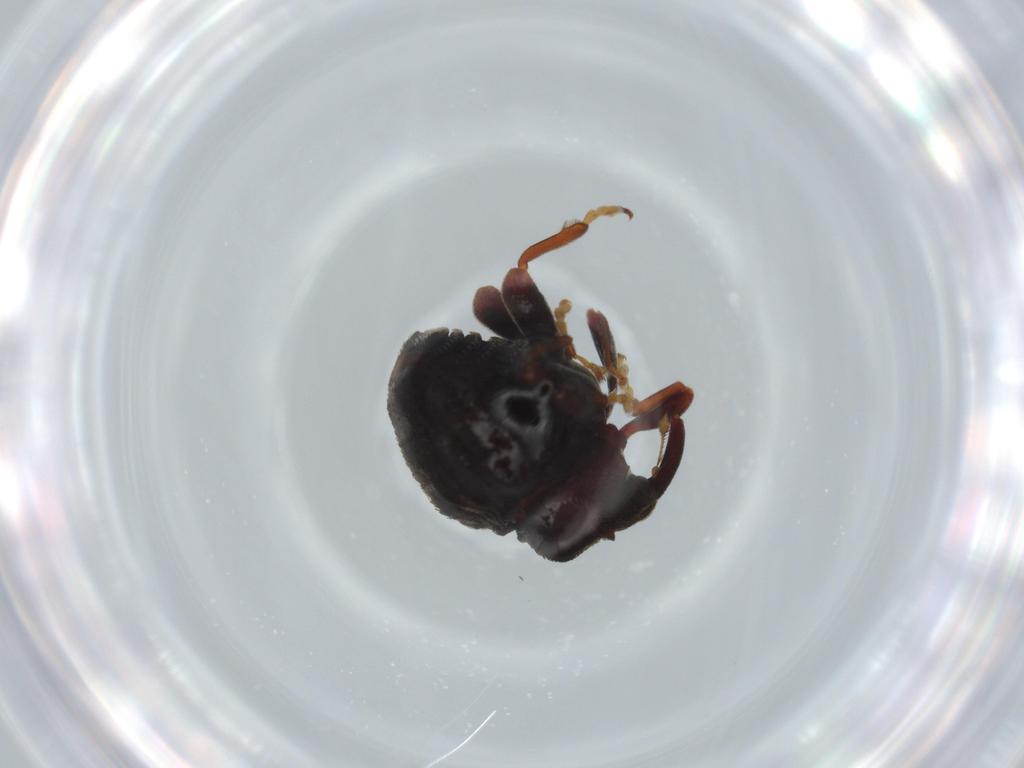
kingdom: Animalia
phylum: Arthropoda
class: Insecta
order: Coleoptera
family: Curculionidae
